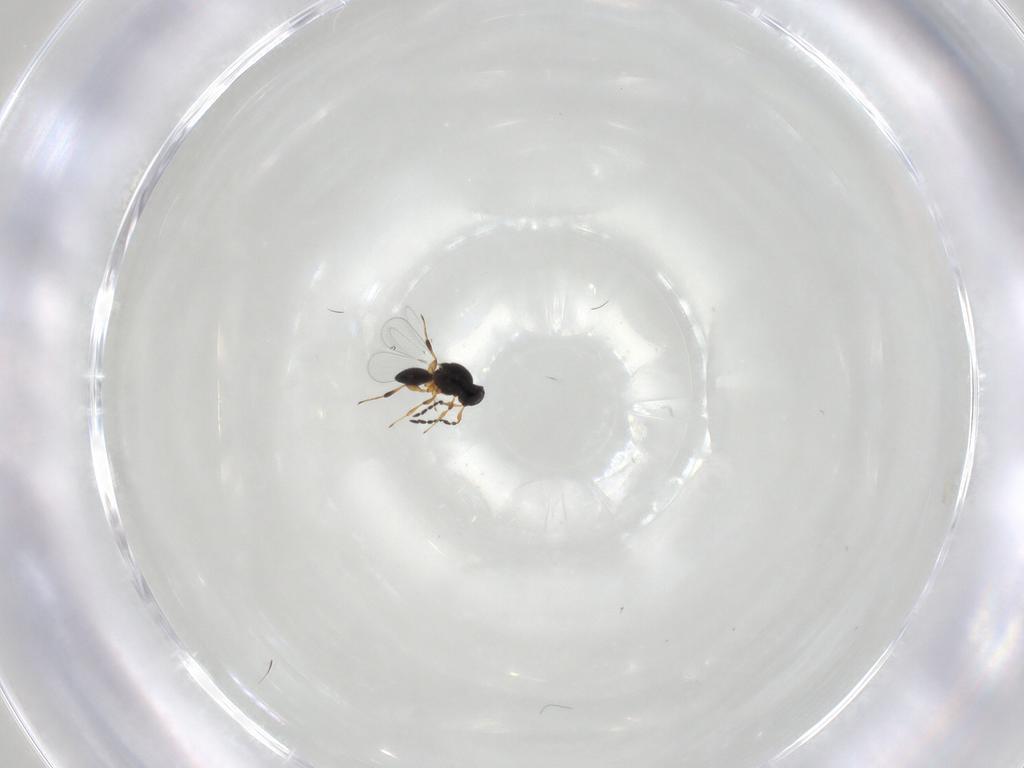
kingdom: Animalia
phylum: Arthropoda
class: Insecta
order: Hymenoptera
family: Platygastridae
